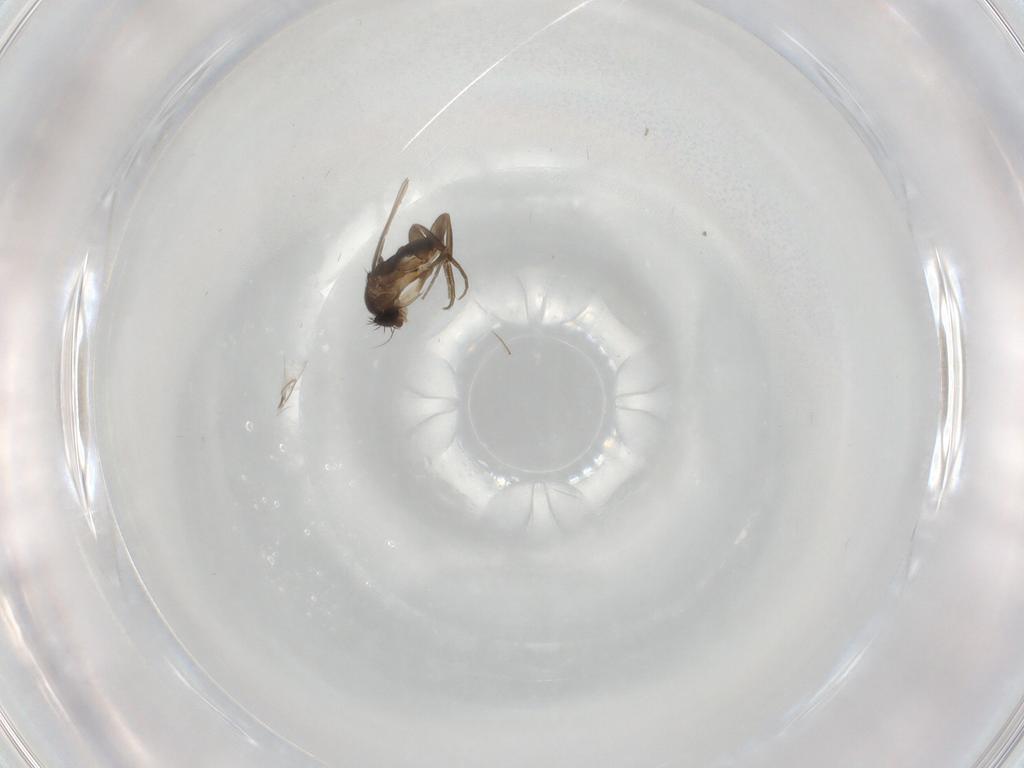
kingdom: Animalia
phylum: Arthropoda
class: Insecta
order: Diptera
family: Phoridae
